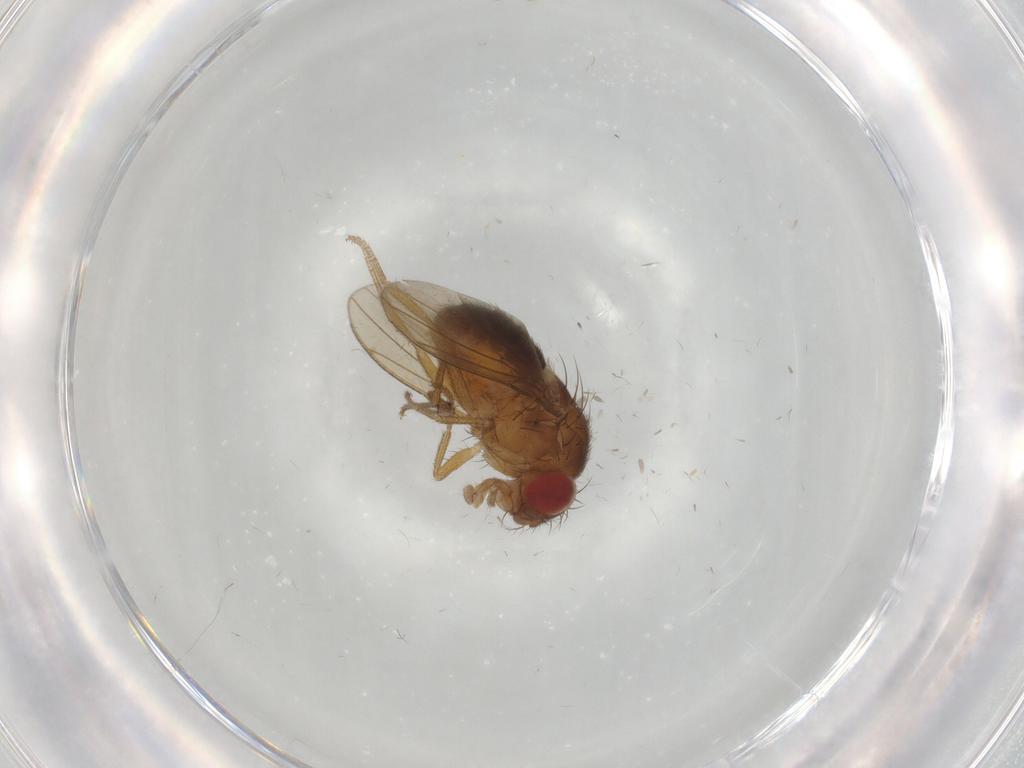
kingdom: Animalia
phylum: Arthropoda
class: Insecta
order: Diptera
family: Drosophilidae
